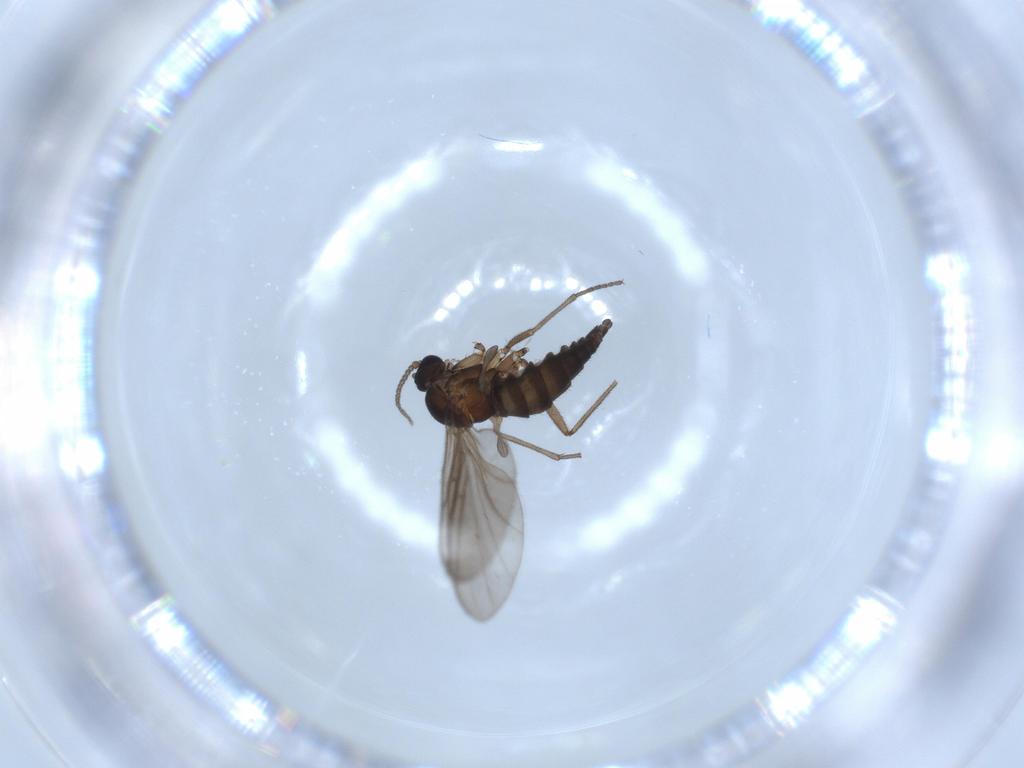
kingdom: Animalia
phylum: Arthropoda
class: Insecta
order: Diptera
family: Sciaridae
